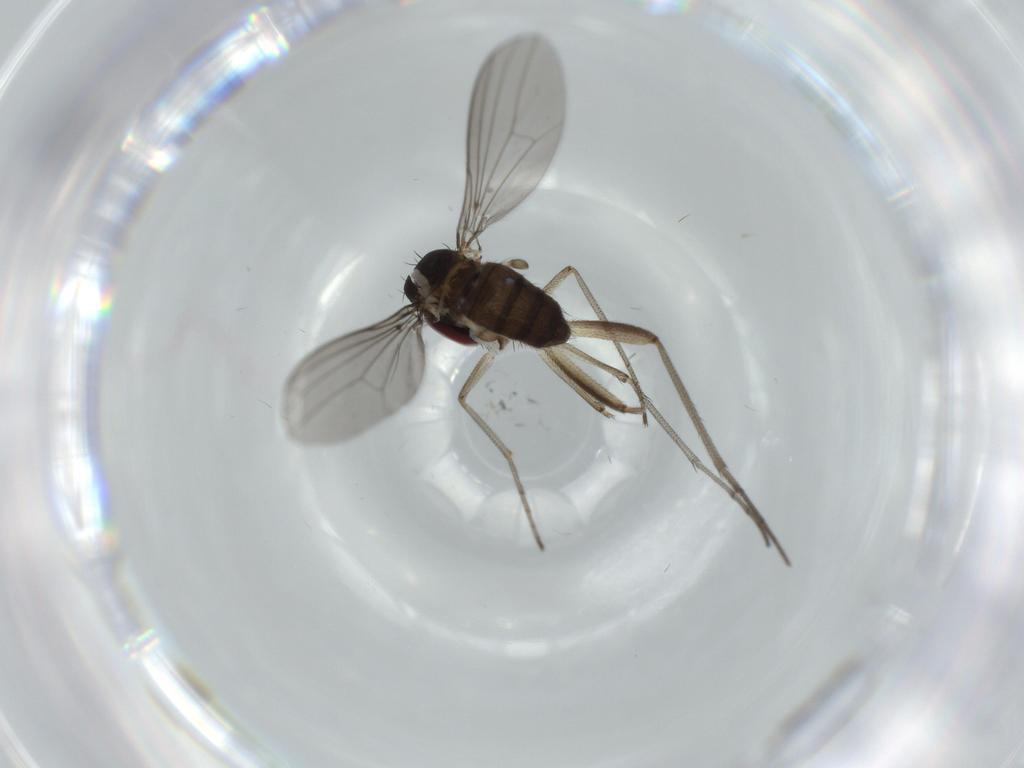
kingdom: Animalia
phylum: Arthropoda
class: Insecta
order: Diptera
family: Dolichopodidae
